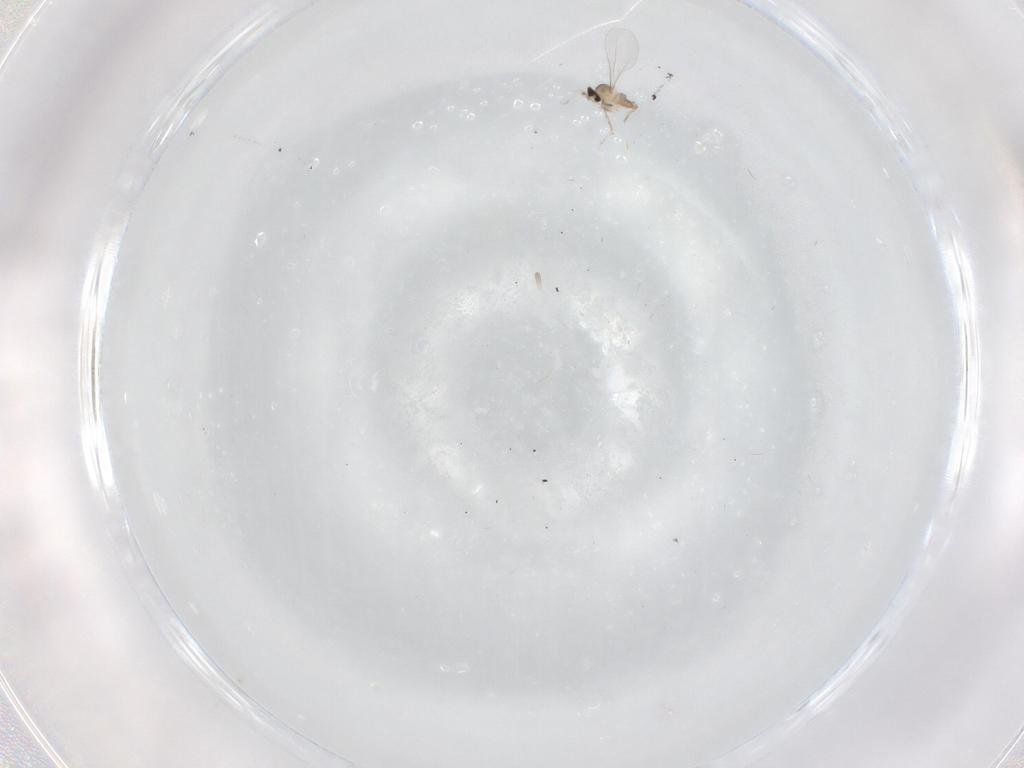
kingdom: Animalia
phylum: Arthropoda
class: Insecta
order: Diptera
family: Cecidomyiidae
